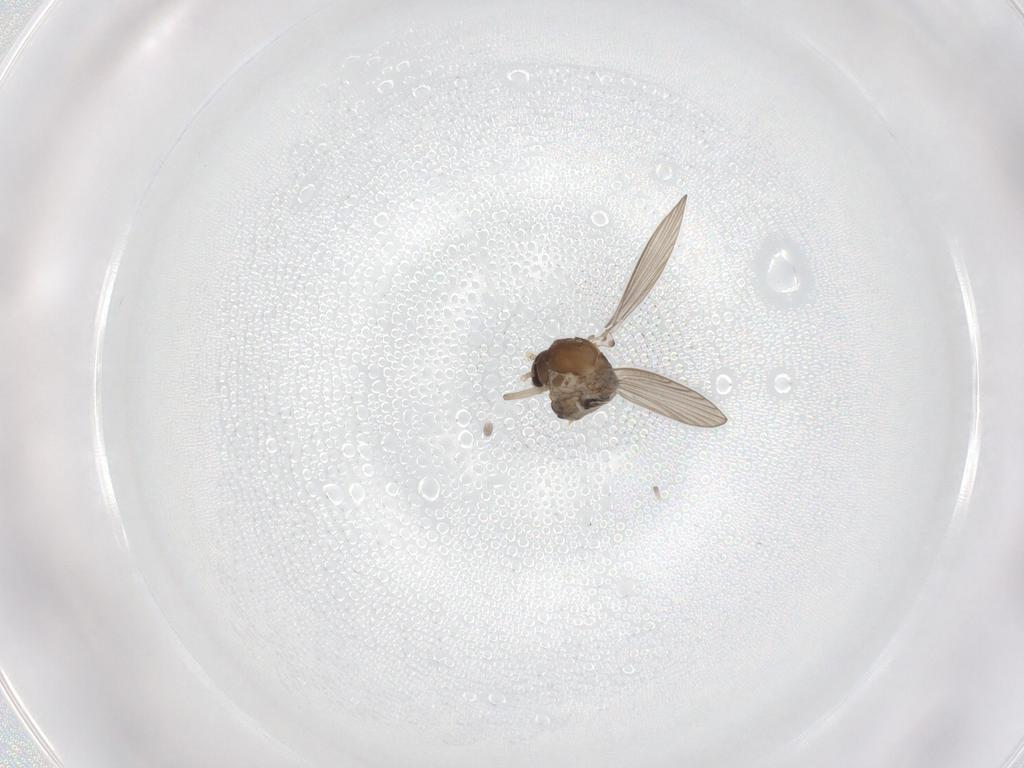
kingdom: Animalia
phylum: Arthropoda
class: Insecta
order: Diptera
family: Psychodidae
